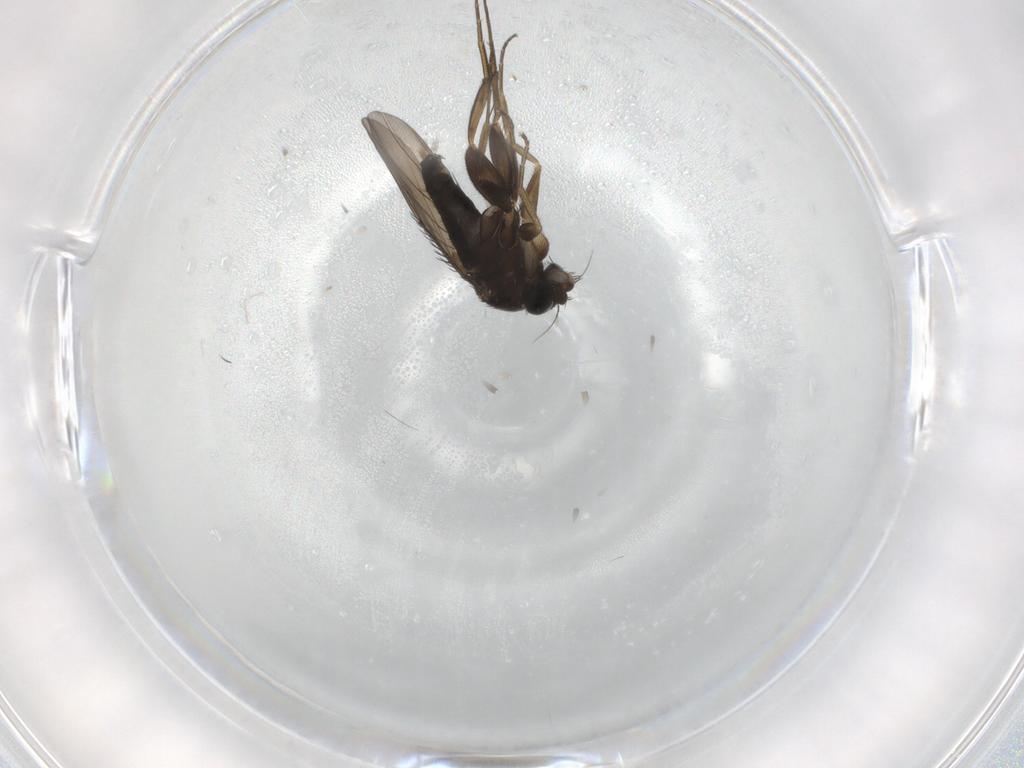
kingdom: Animalia
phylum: Arthropoda
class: Insecta
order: Diptera
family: Phoridae
